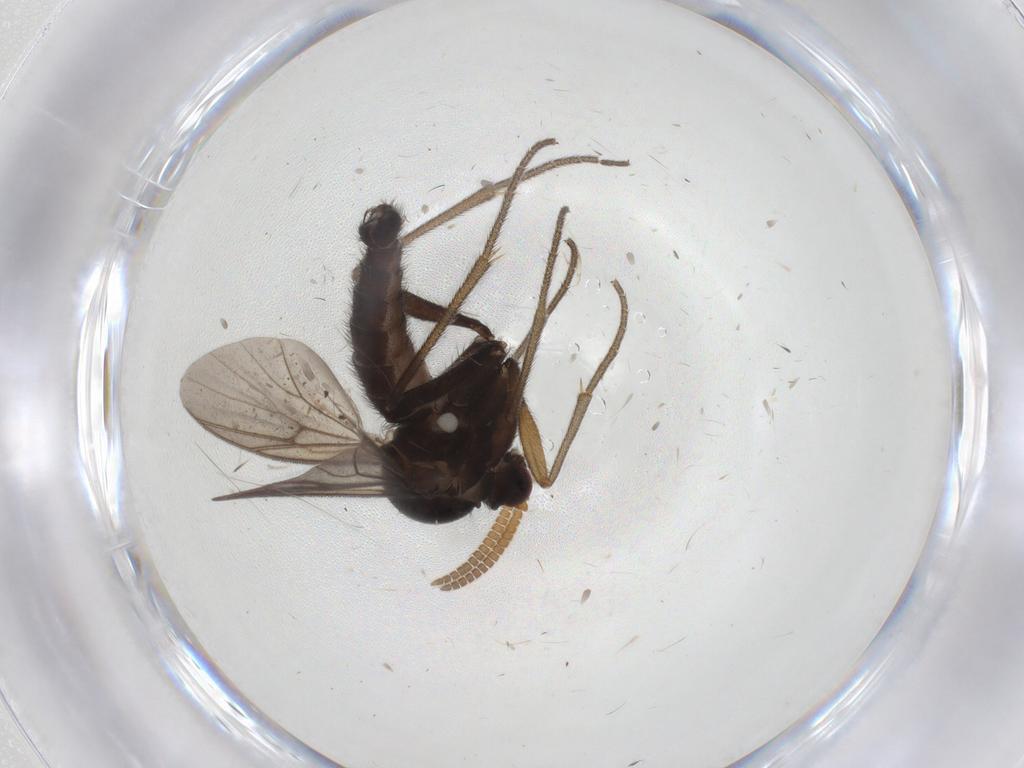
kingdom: Animalia
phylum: Arthropoda
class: Insecta
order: Diptera
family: Mycetophilidae
